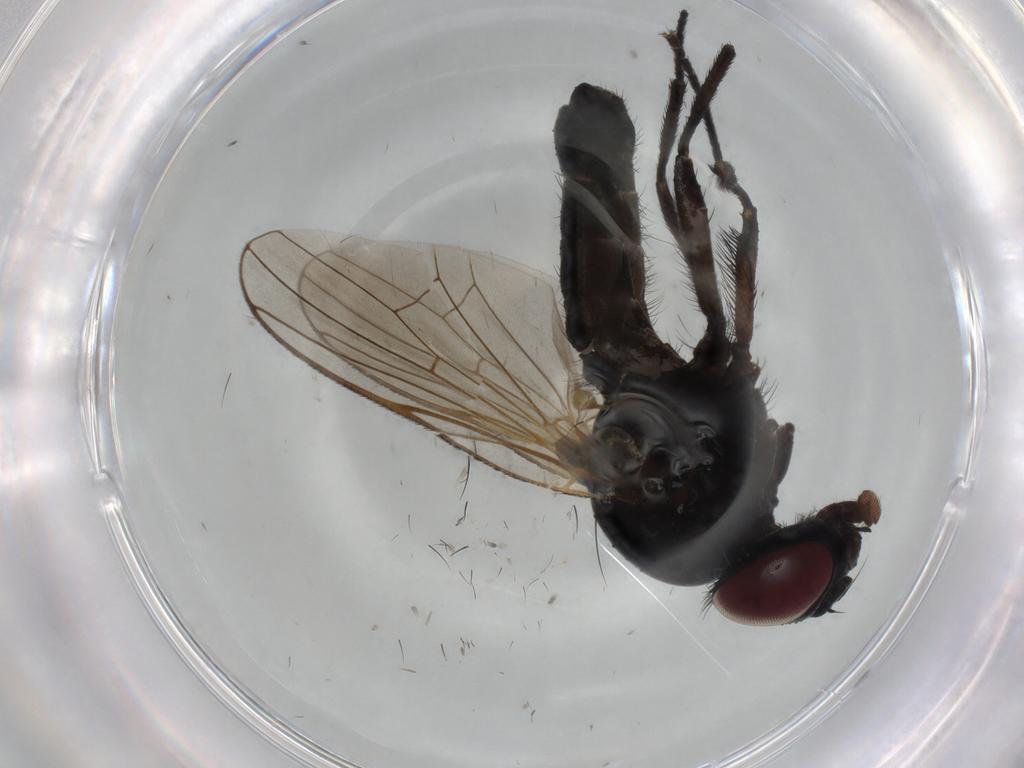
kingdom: Animalia
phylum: Arthropoda
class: Insecta
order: Diptera
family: Fannia
